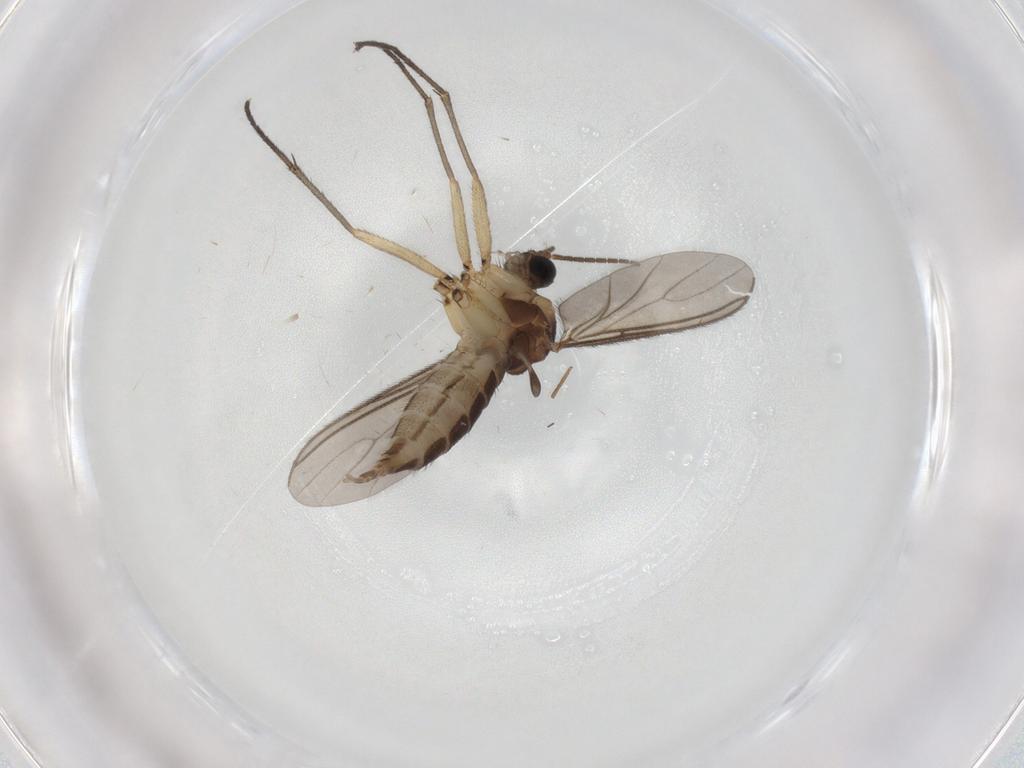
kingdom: Animalia
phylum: Arthropoda
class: Insecta
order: Diptera
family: Sciaridae
